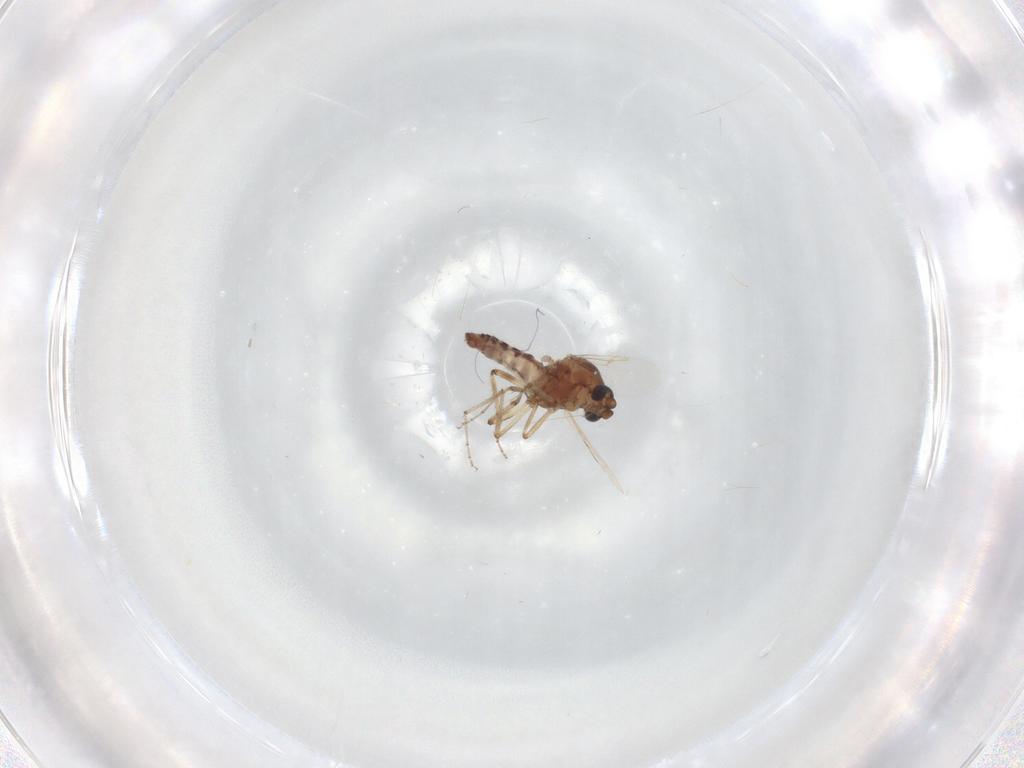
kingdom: Animalia
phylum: Arthropoda
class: Insecta
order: Diptera
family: Ceratopogonidae
